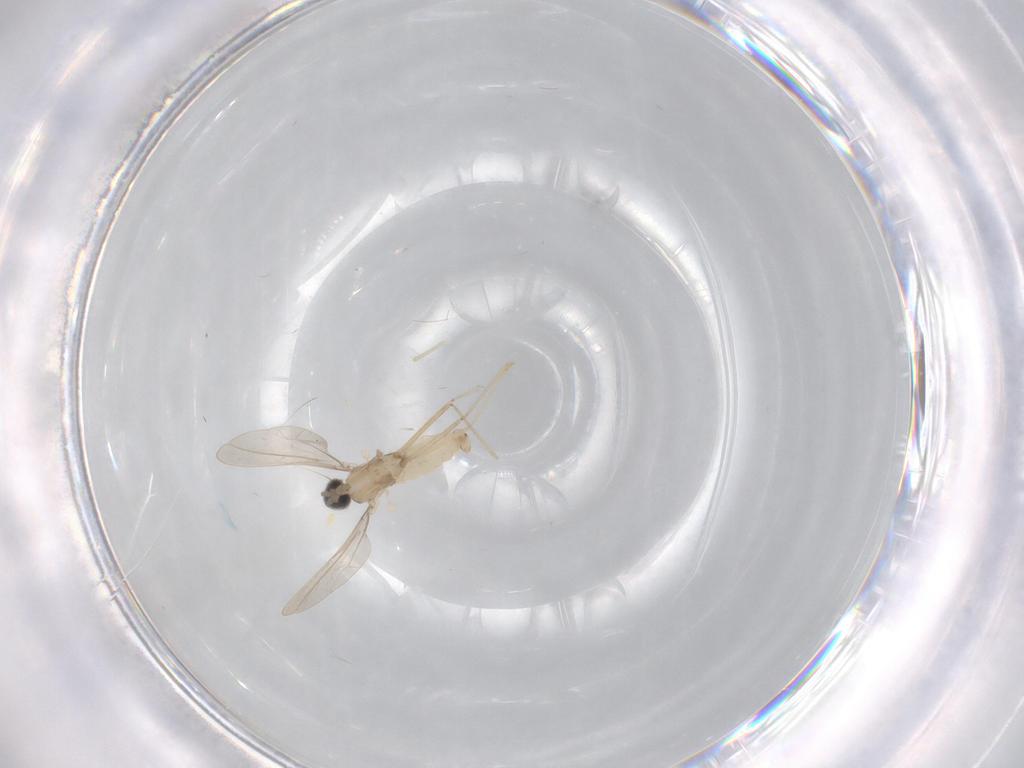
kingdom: Animalia
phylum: Arthropoda
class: Insecta
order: Diptera
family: Cecidomyiidae
